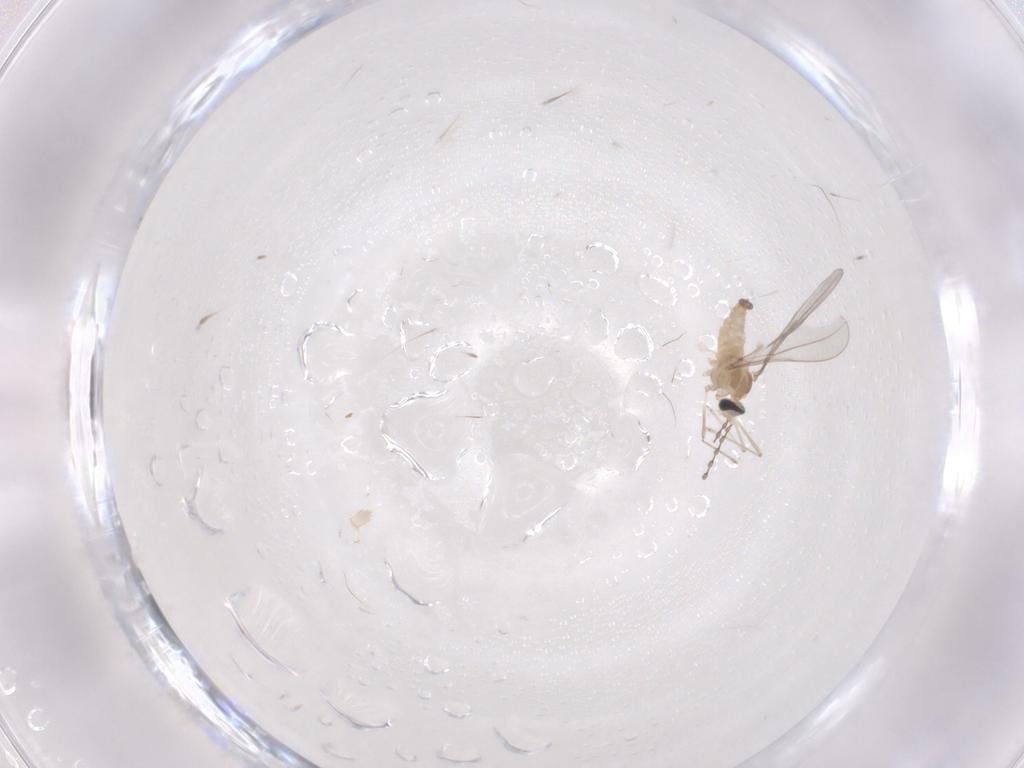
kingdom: Animalia
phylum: Arthropoda
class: Insecta
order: Diptera
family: Cecidomyiidae
